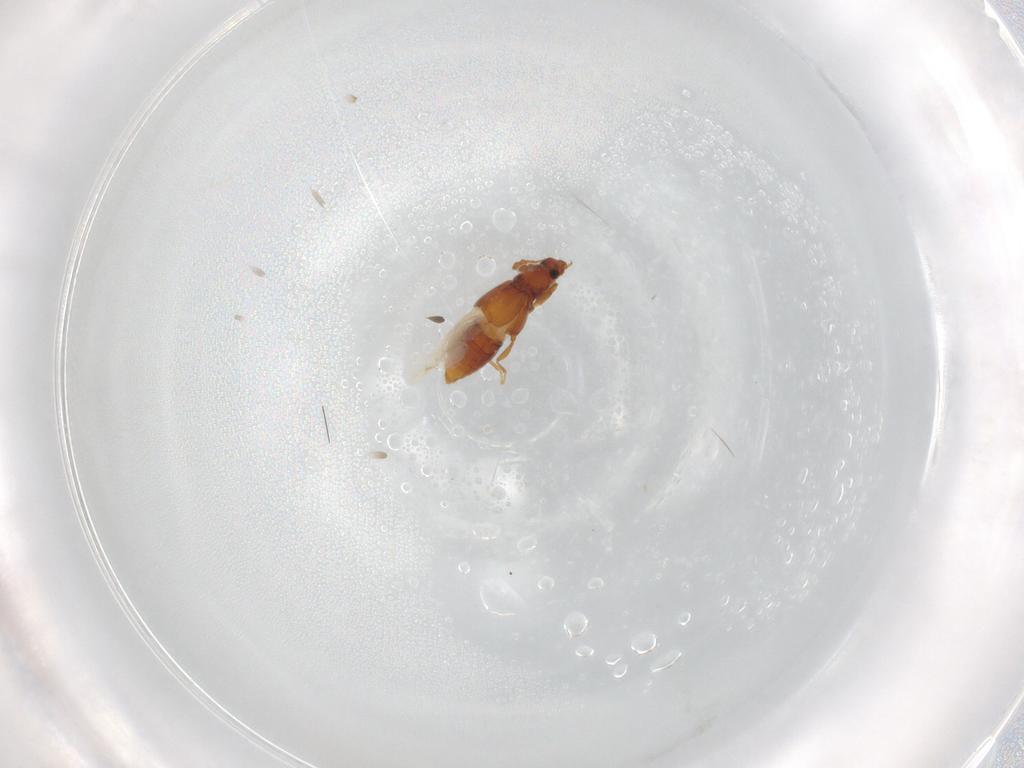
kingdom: Animalia
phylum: Arthropoda
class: Insecta
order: Coleoptera
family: Staphylinidae
